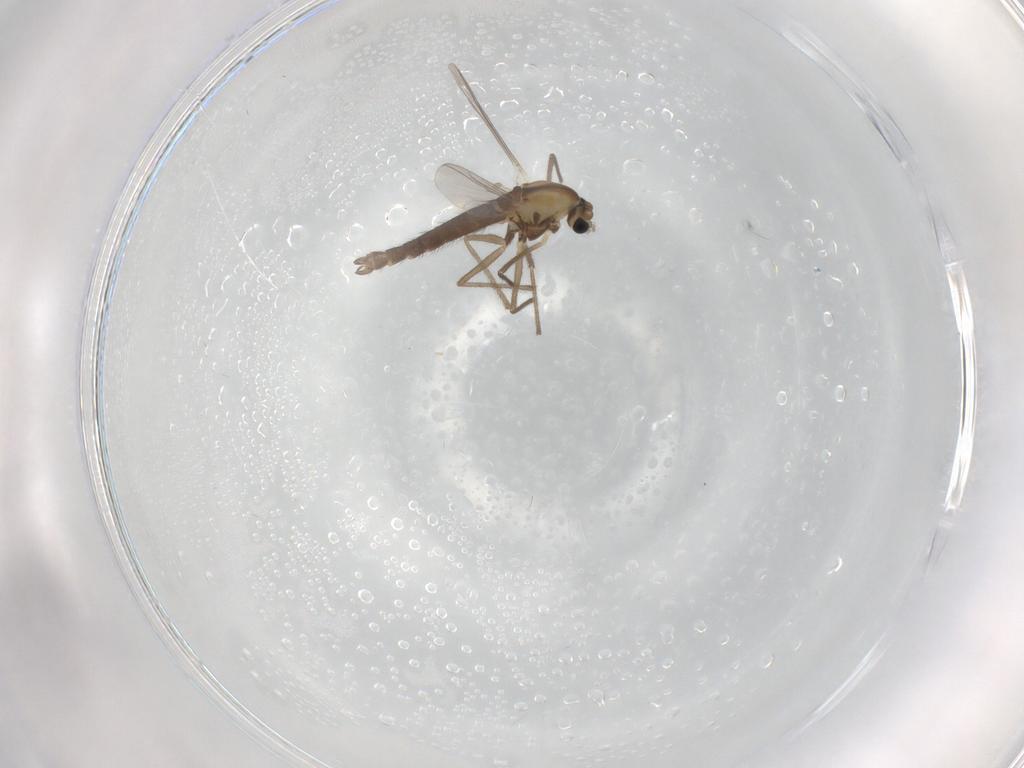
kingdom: Animalia
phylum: Arthropoda
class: Insecta
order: Diptera
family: Chironomidae
